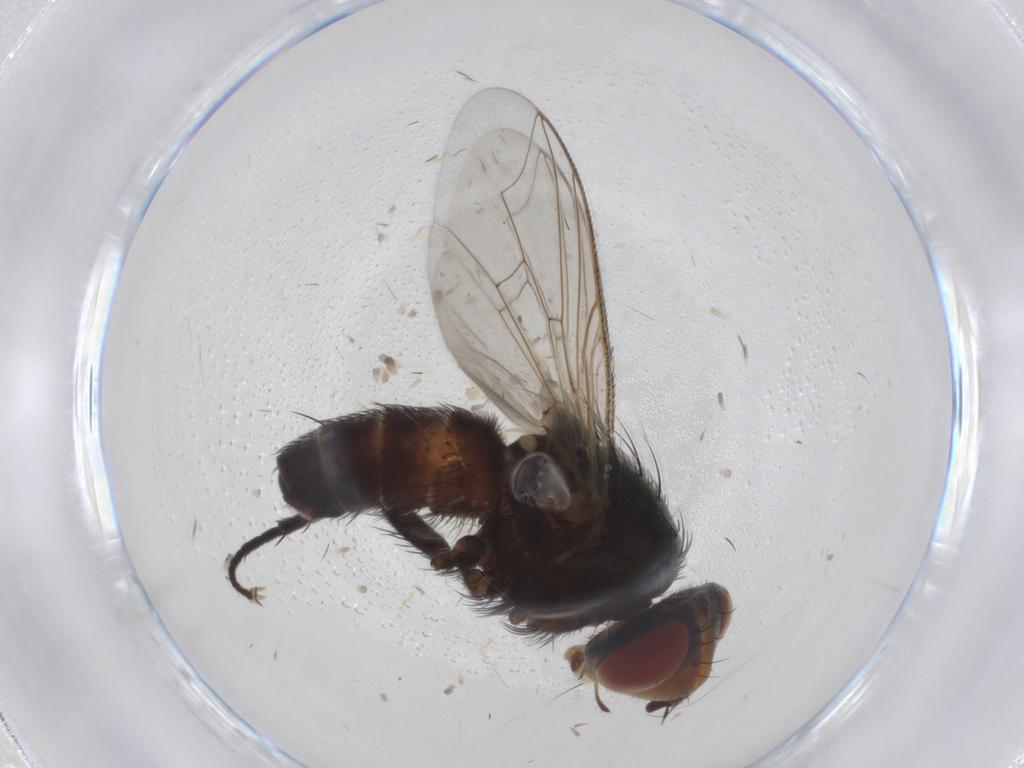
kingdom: Animalia
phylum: Arthropoda
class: Insecta
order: Diptera
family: Sarcophagidae
